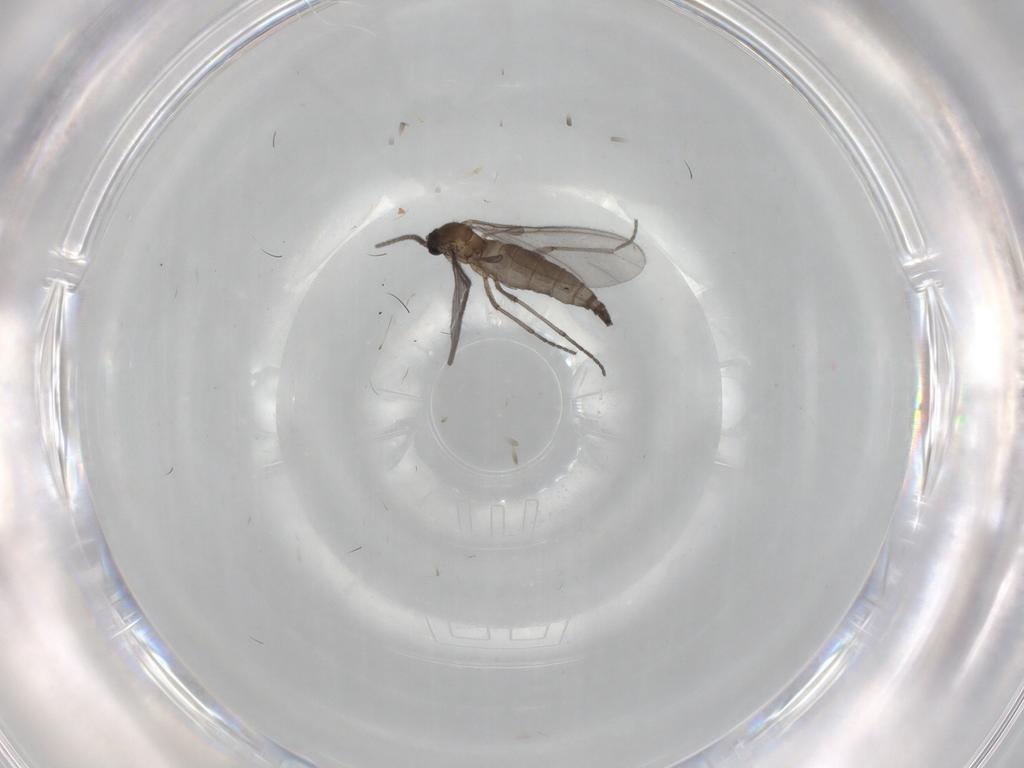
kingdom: Animalia
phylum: Arthropoda
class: Insecta
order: Diptera
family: Sciaridae
